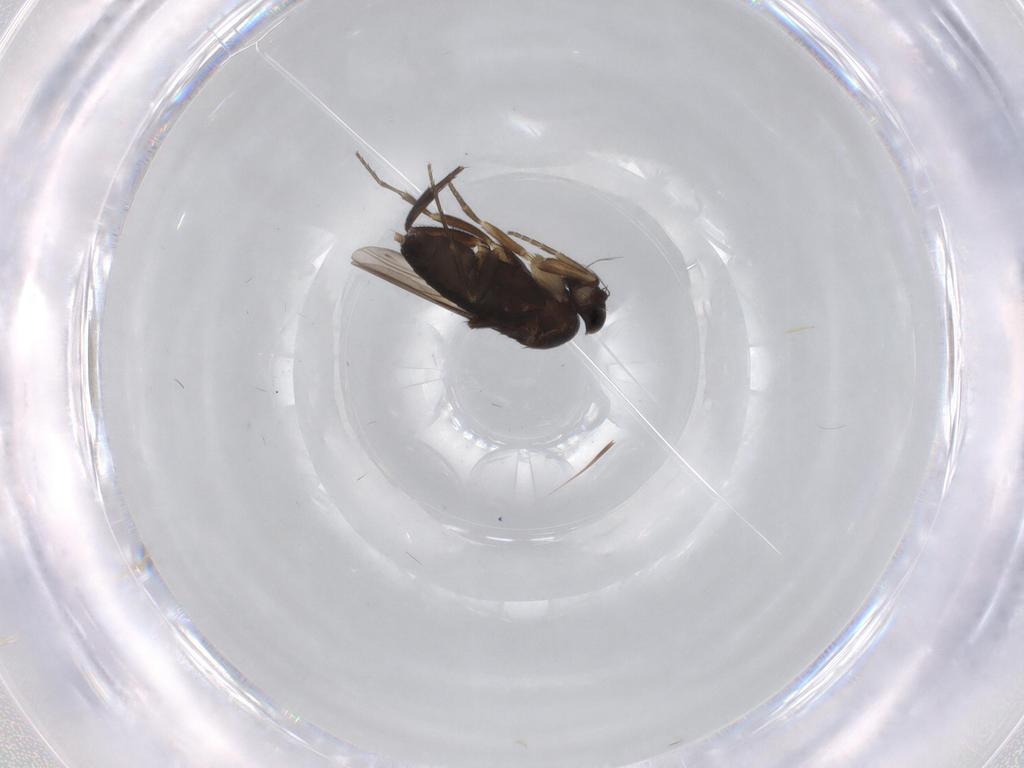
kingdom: Animalia
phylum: Arthropoda
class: Insecta
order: Diptera
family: Phoridae
